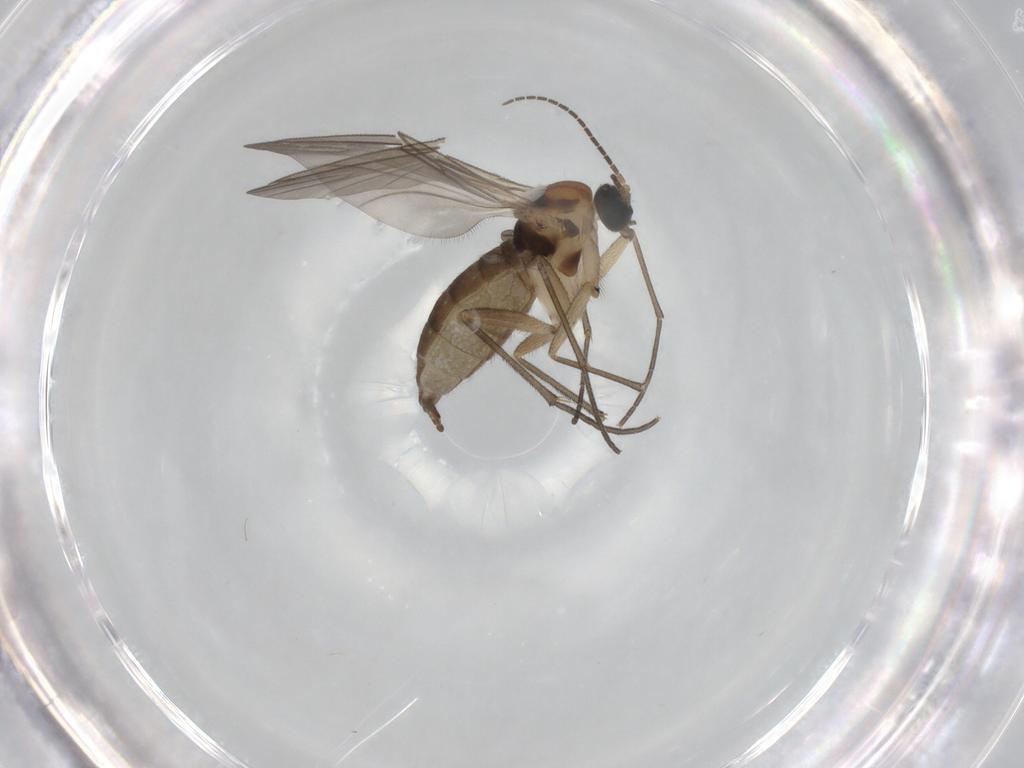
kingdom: Animalia
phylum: Arthropoda
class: Insecta
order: Diptera
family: Sciaridae
